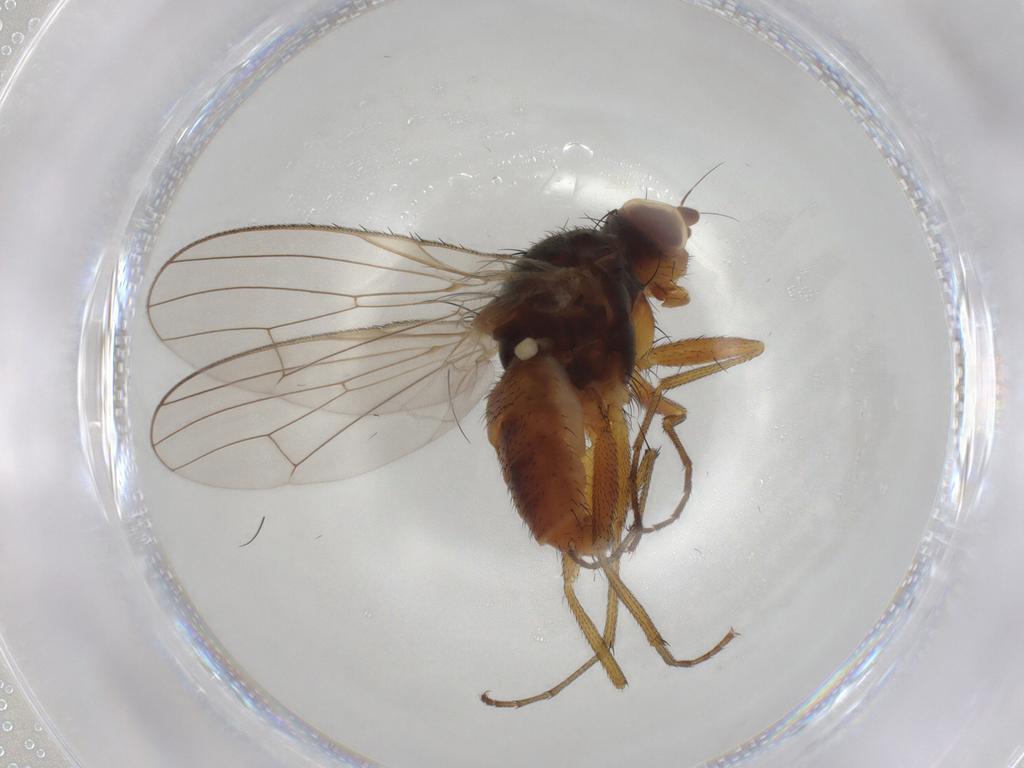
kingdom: Animalia
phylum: Arthropoda
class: Insecta
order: Diptera
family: Heleomyzidae
